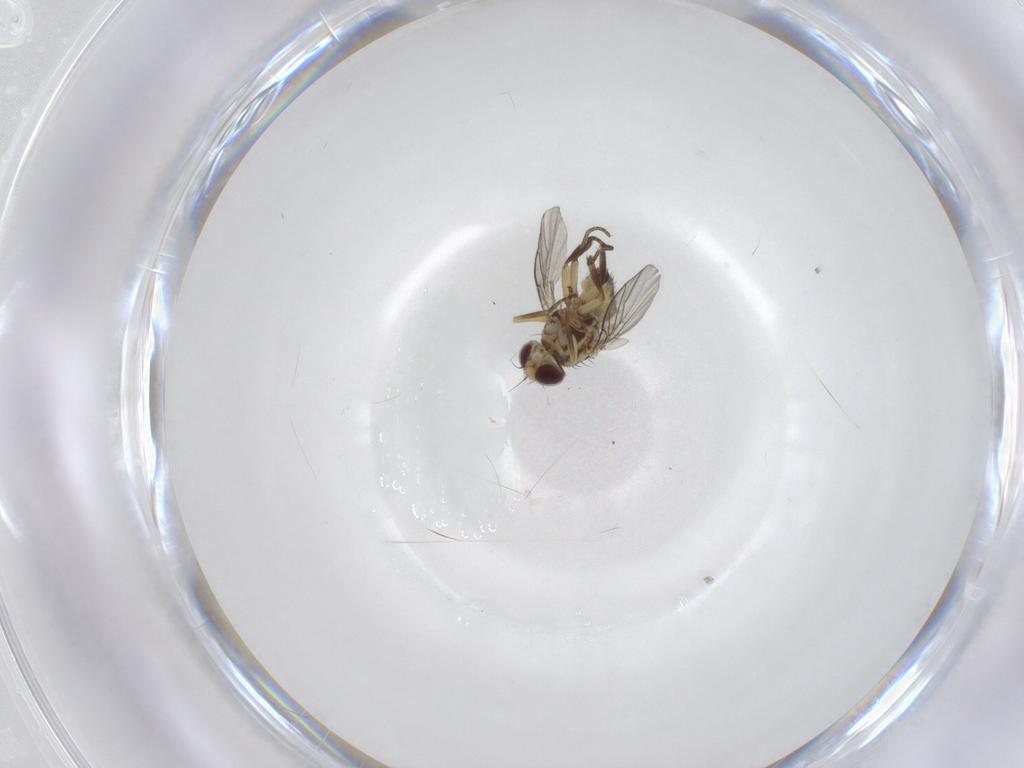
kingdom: Animalia
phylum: Arthropoda
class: Insecta
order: Diptera
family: Agromyzidae
